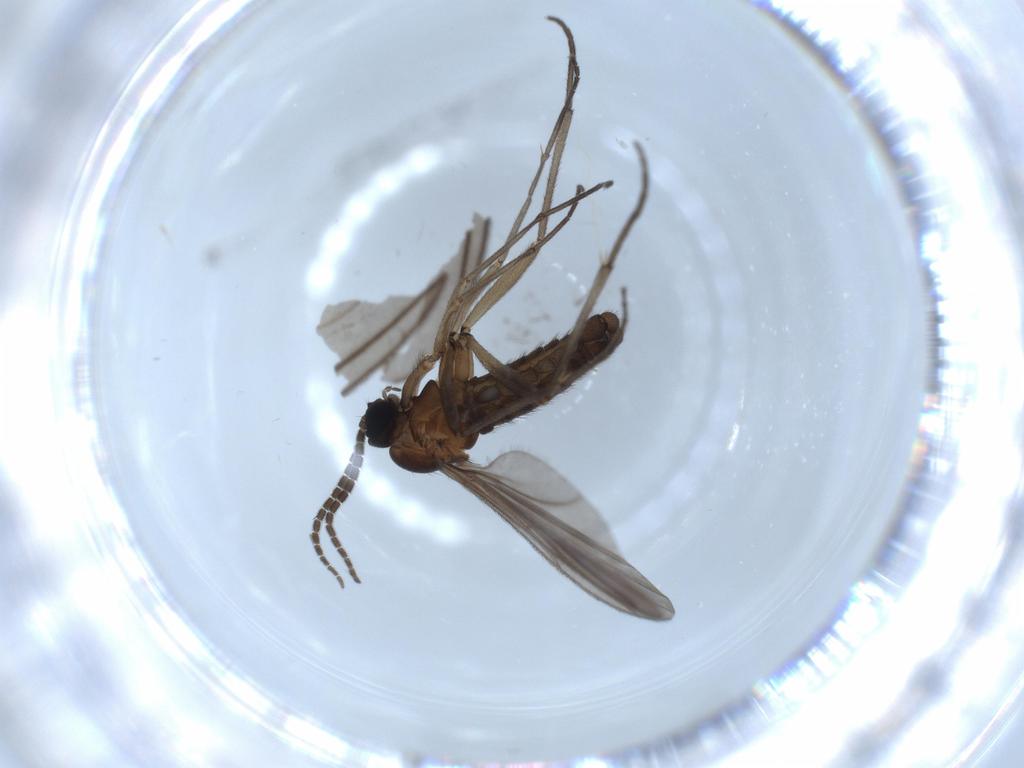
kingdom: Animalia
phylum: Arthropoda
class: Insecta
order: Diptera
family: Sciaridae
